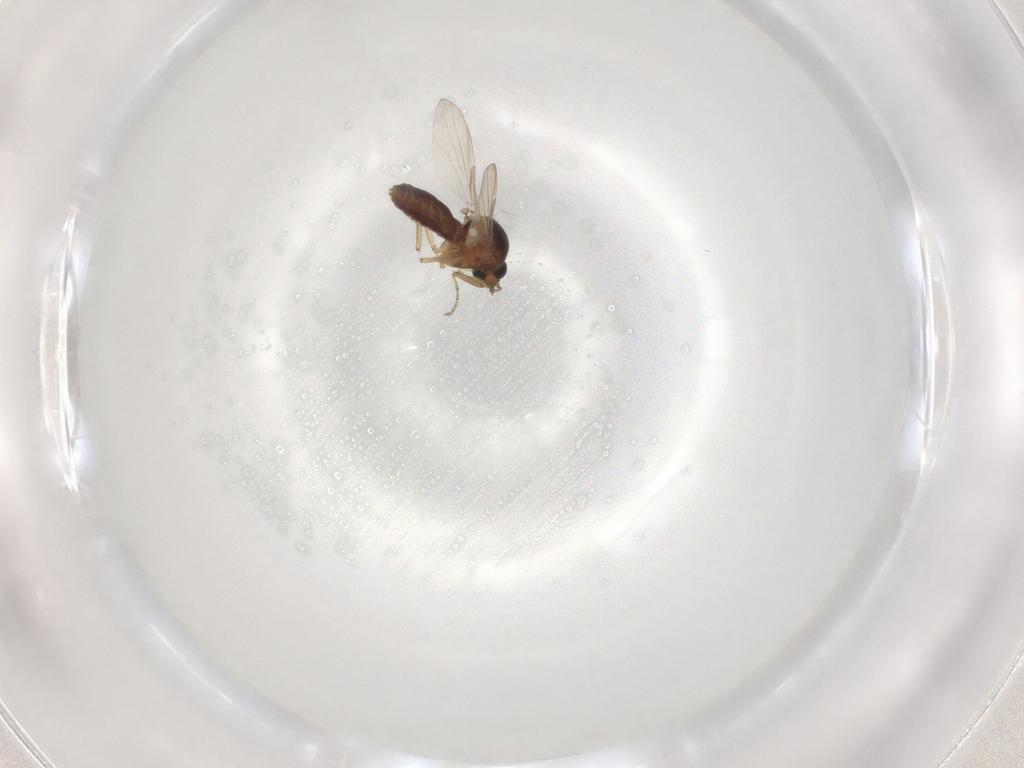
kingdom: Animalia
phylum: Arthropoda
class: Insecta
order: Diptera
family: Ceratopogonidae
